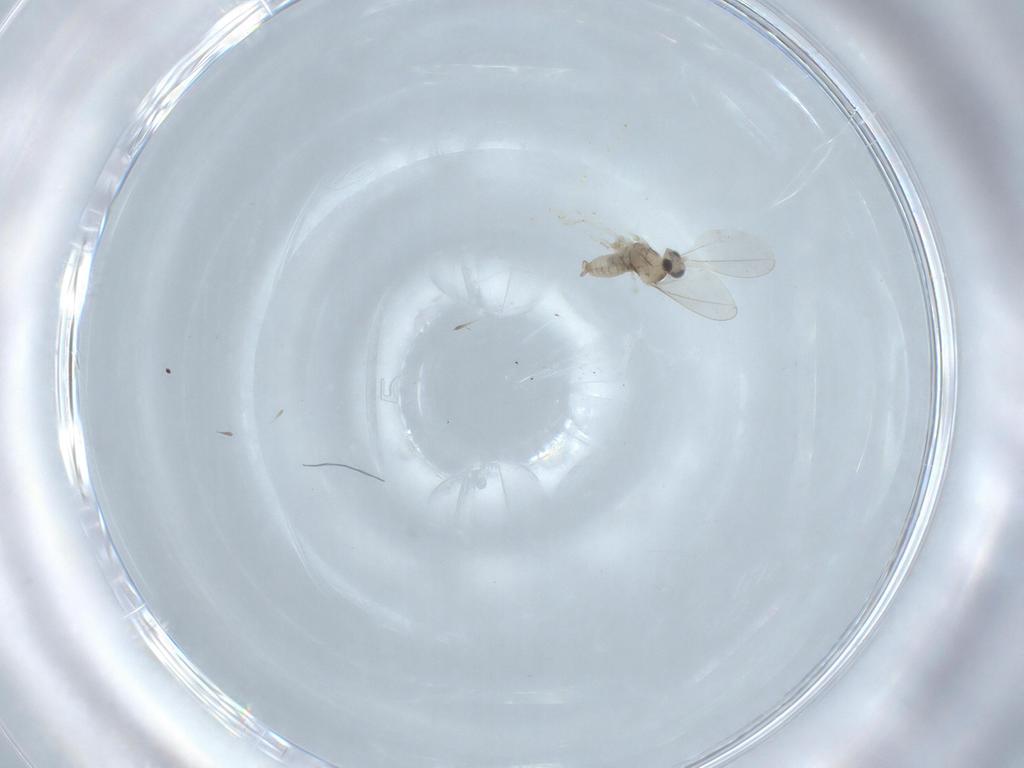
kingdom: Animalia
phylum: Arthropoda
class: Insecta
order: Diptera
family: Cecidomyiidae
